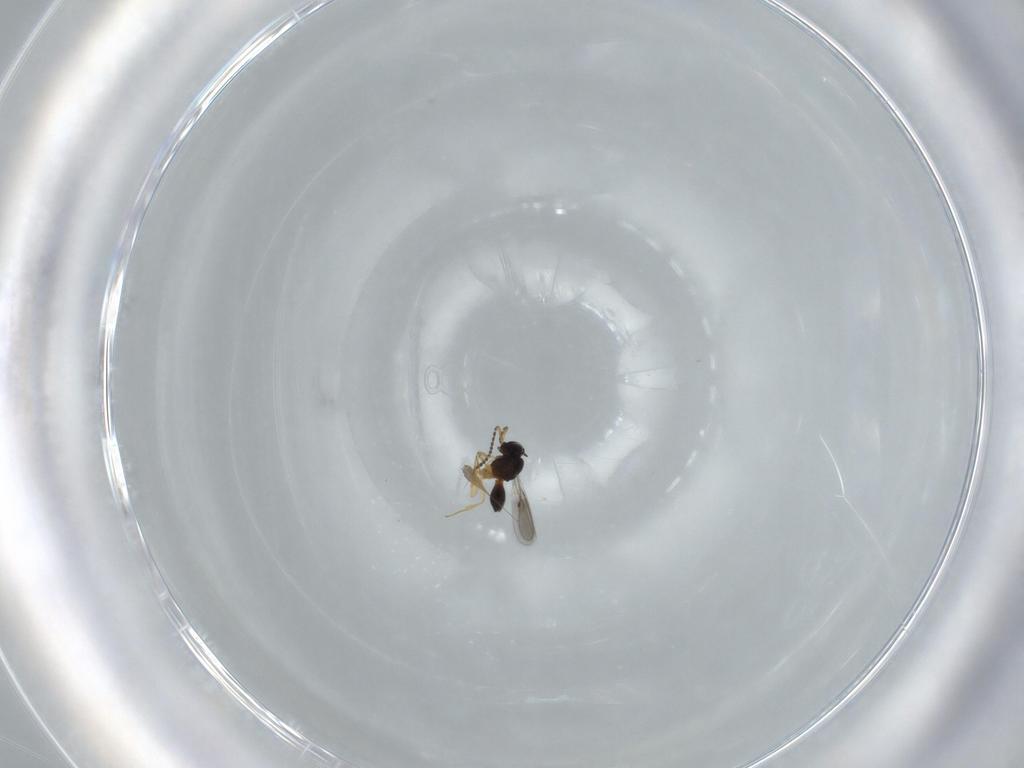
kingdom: Animalia
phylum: Arthropoda
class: Insecta
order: Hymenoptera
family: Scelionidae
